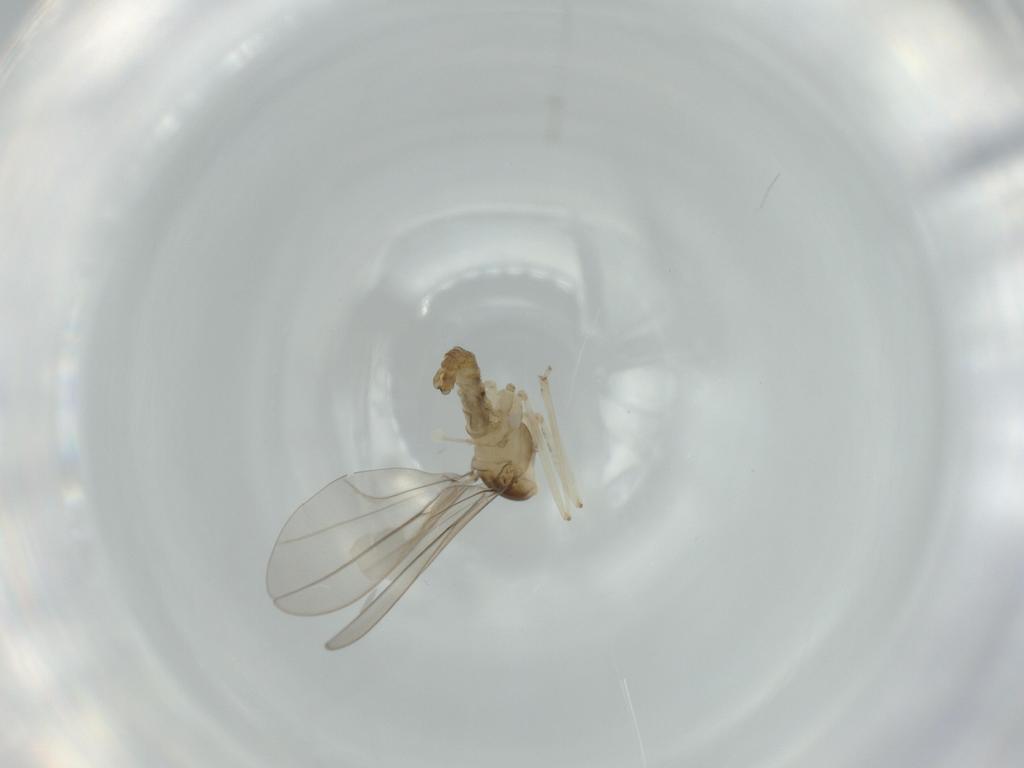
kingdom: Animalia
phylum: Arthropoda
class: Insecta
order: Diptera
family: Cecidomyiidae
